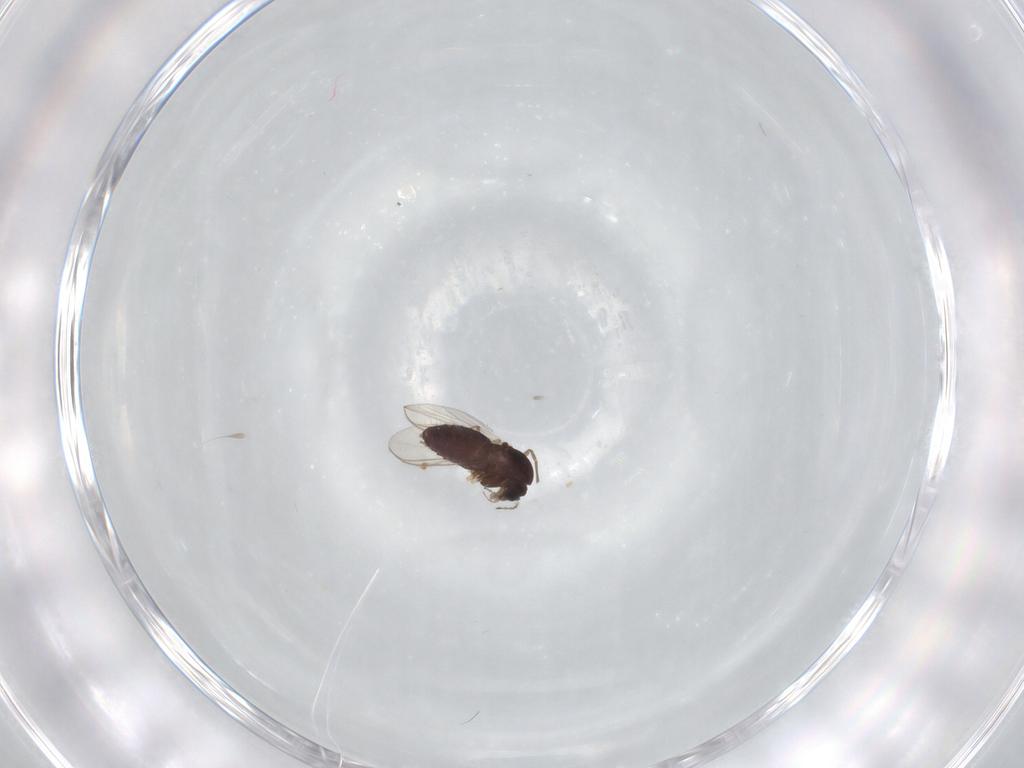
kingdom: Animalia
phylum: Arthropoda
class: Insecta
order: Diptera
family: Chironomidae
